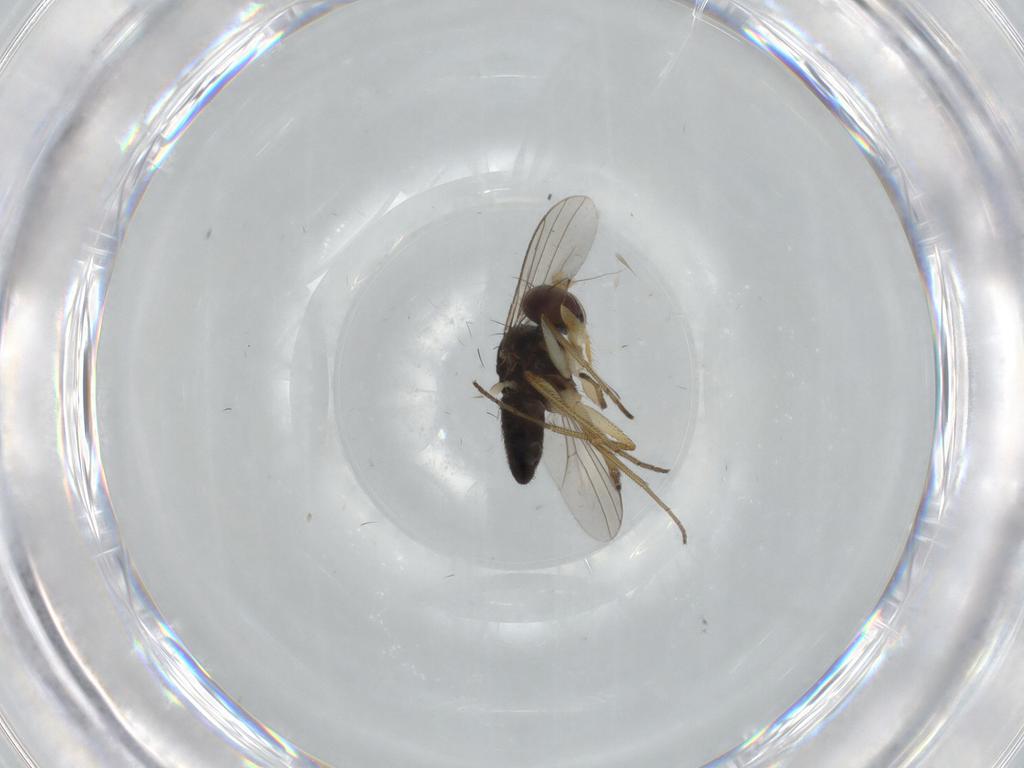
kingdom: Animalia
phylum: Arthropoda
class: Insecta
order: Diptera
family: Dolichopodidae
